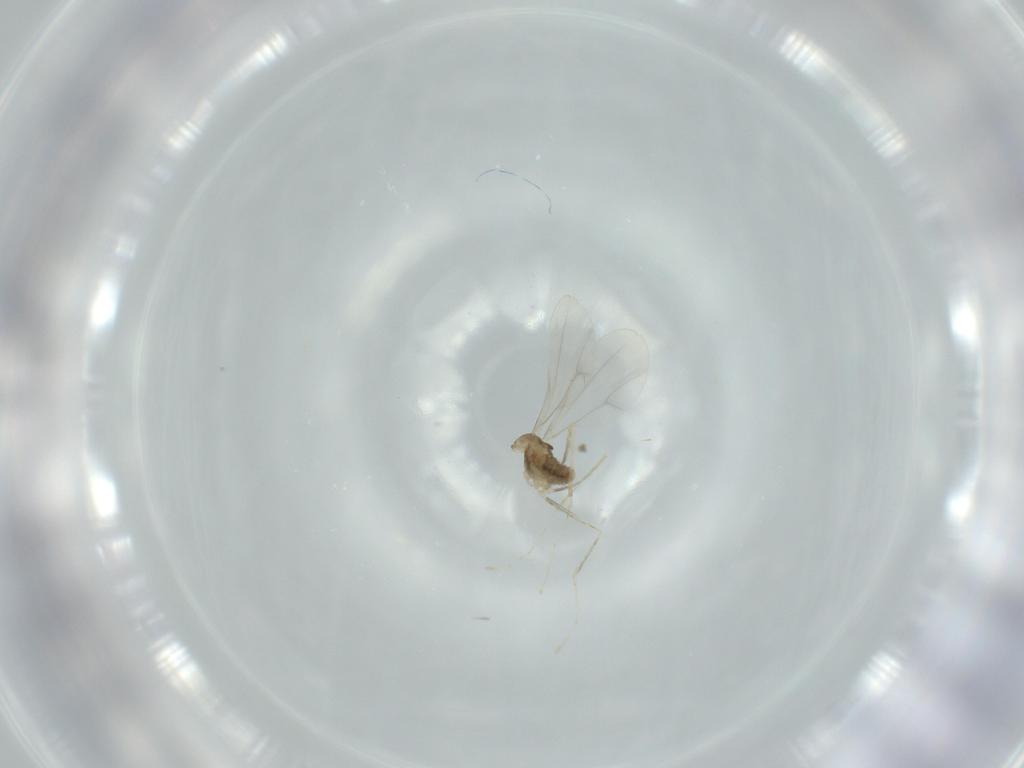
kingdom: Animalia
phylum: Arthropoda
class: Insecta
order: Diptera
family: Cecidomyiidae
